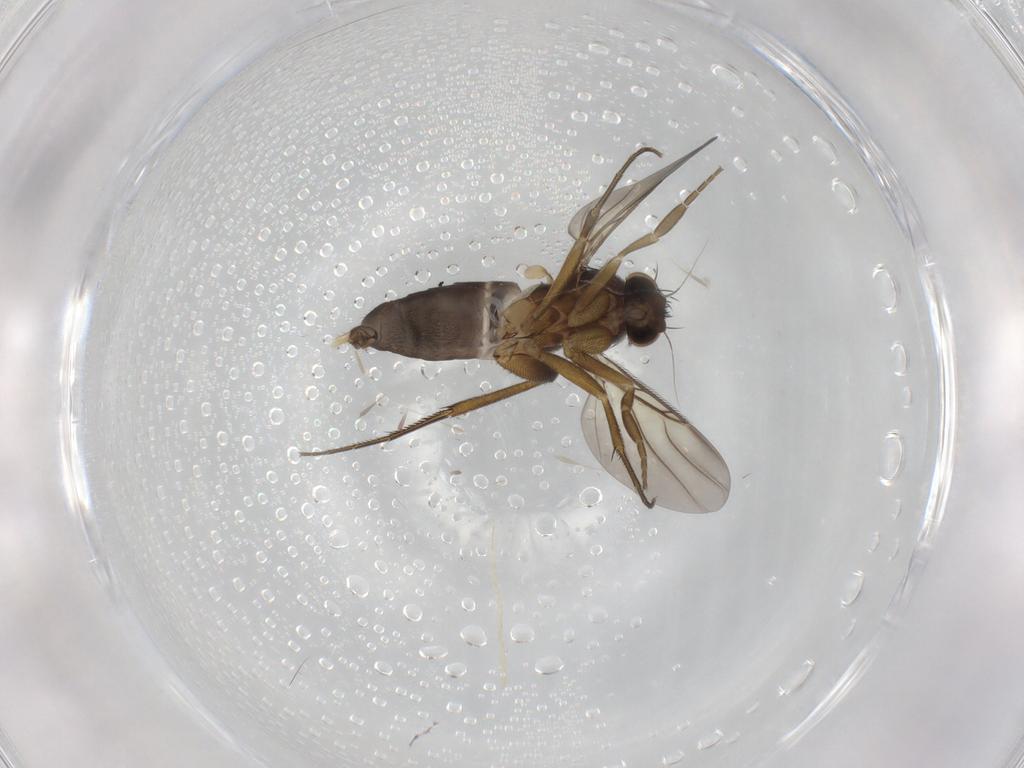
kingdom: Animalia
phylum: Arthropoda
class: Insecta
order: Diptera
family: Phoridae
